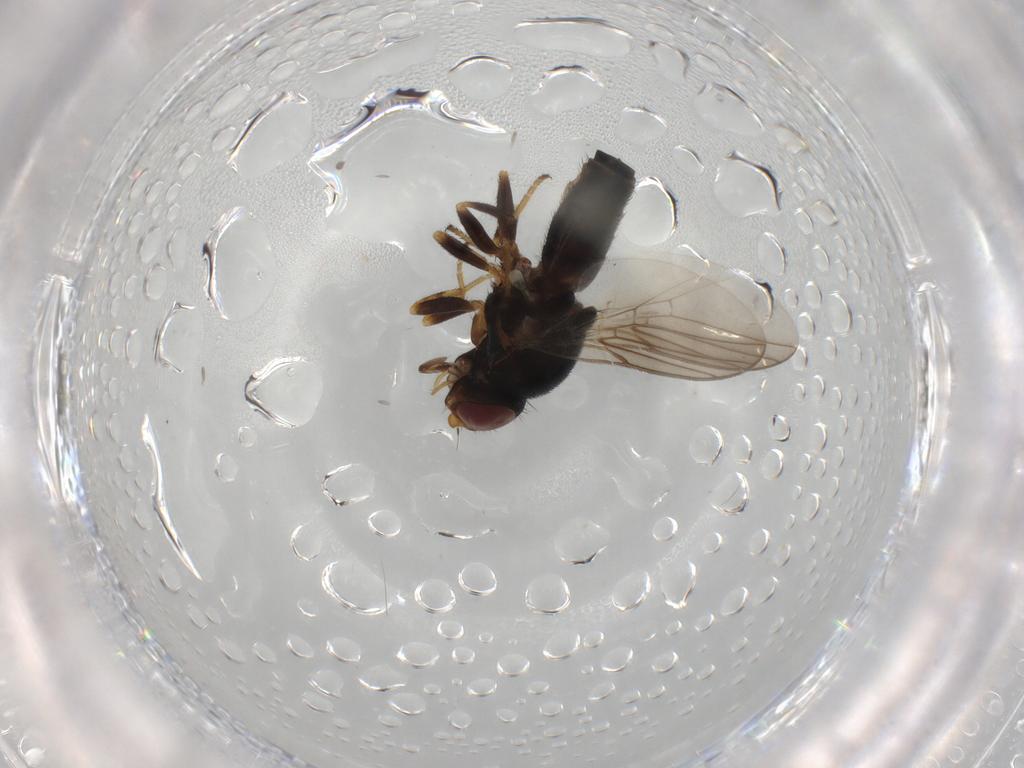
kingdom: Animalia
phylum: Arthropoda
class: Insecta
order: Diptera
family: Chloropidae
